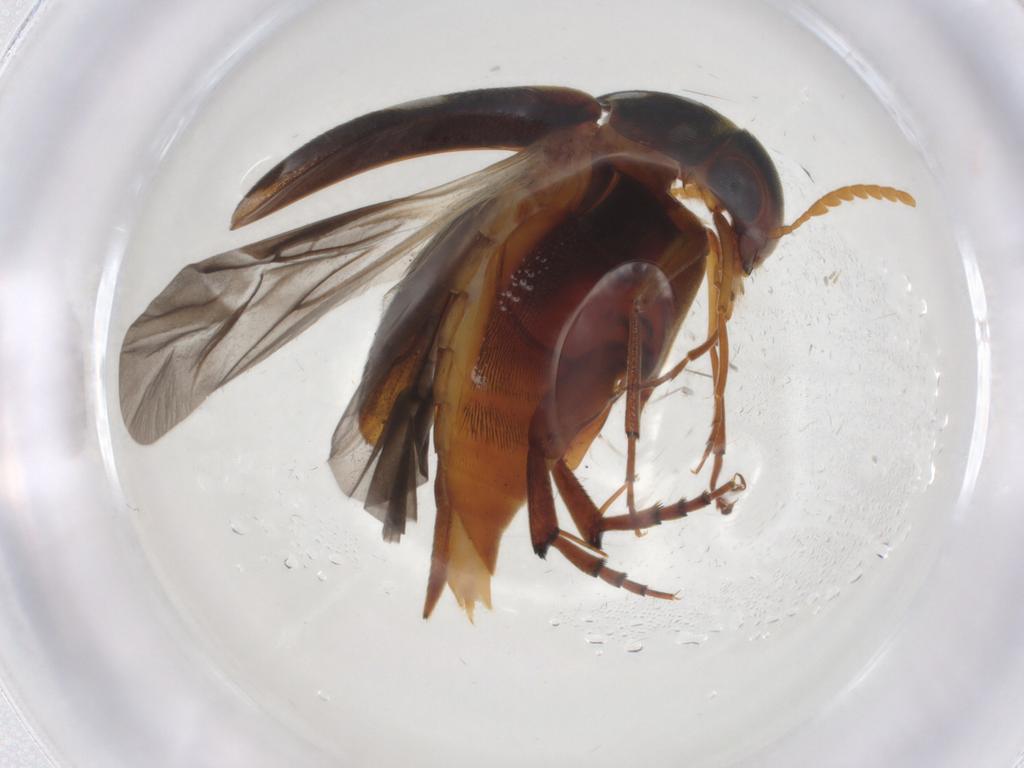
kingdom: Animalia
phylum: Arthropoda
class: Insecta
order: Coleoptera
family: Mordellidae
